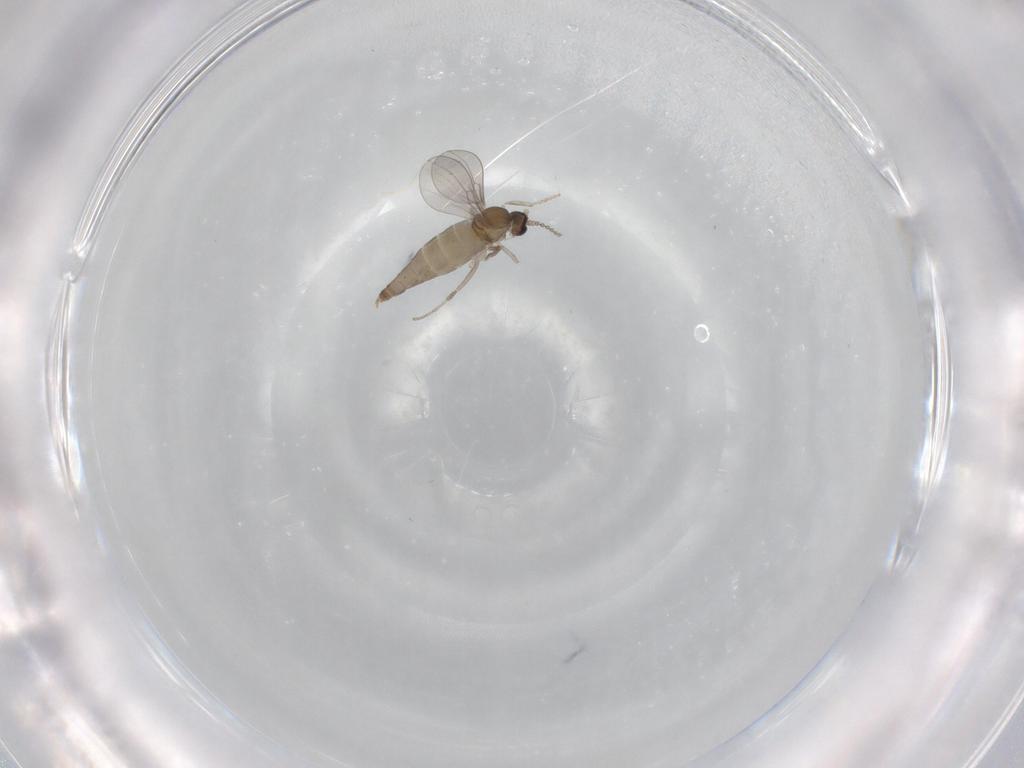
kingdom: Animalia
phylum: Arthropoda
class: Insecta
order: Diptera
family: Cecidomyiidae
